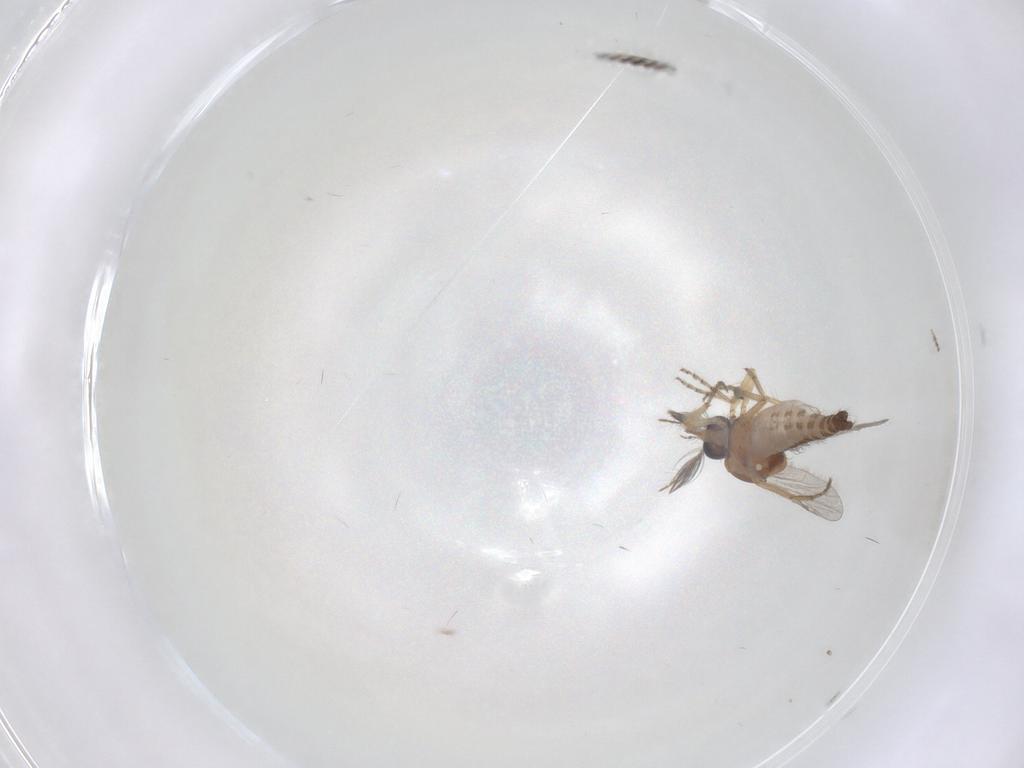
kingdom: Animalia
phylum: Arthropoda
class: Insecta
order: Diptera
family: Ceratopogonidae
